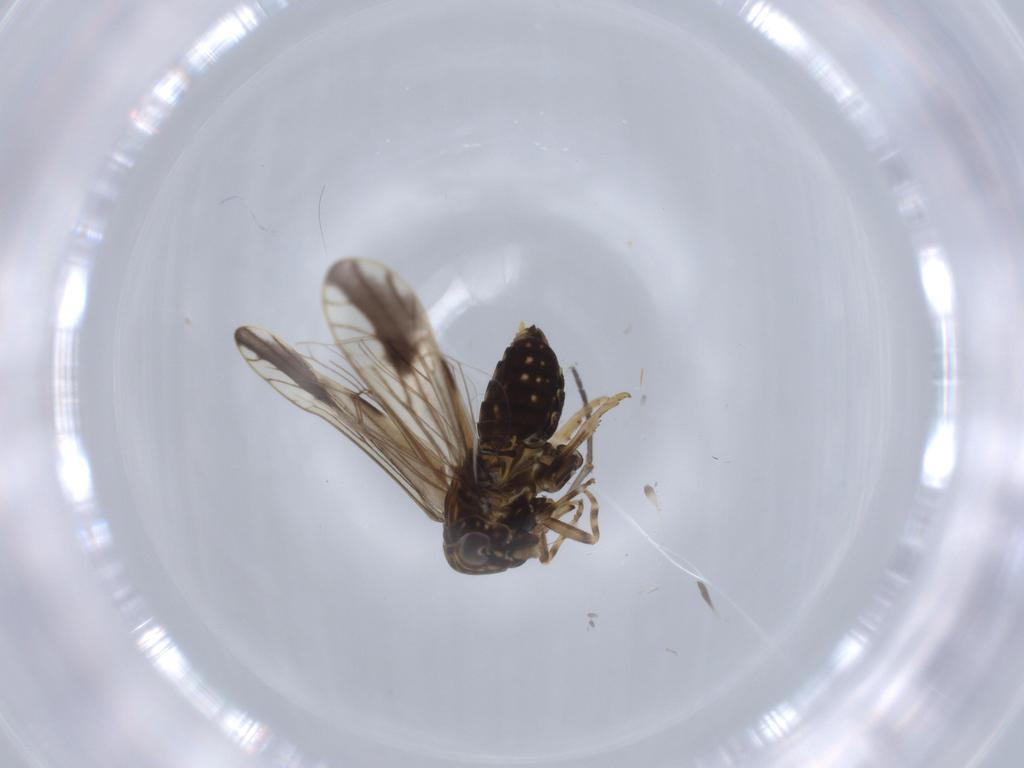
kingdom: Animalia
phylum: Arthropoda
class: Insecta
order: Hemiptera
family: Delphacidae
